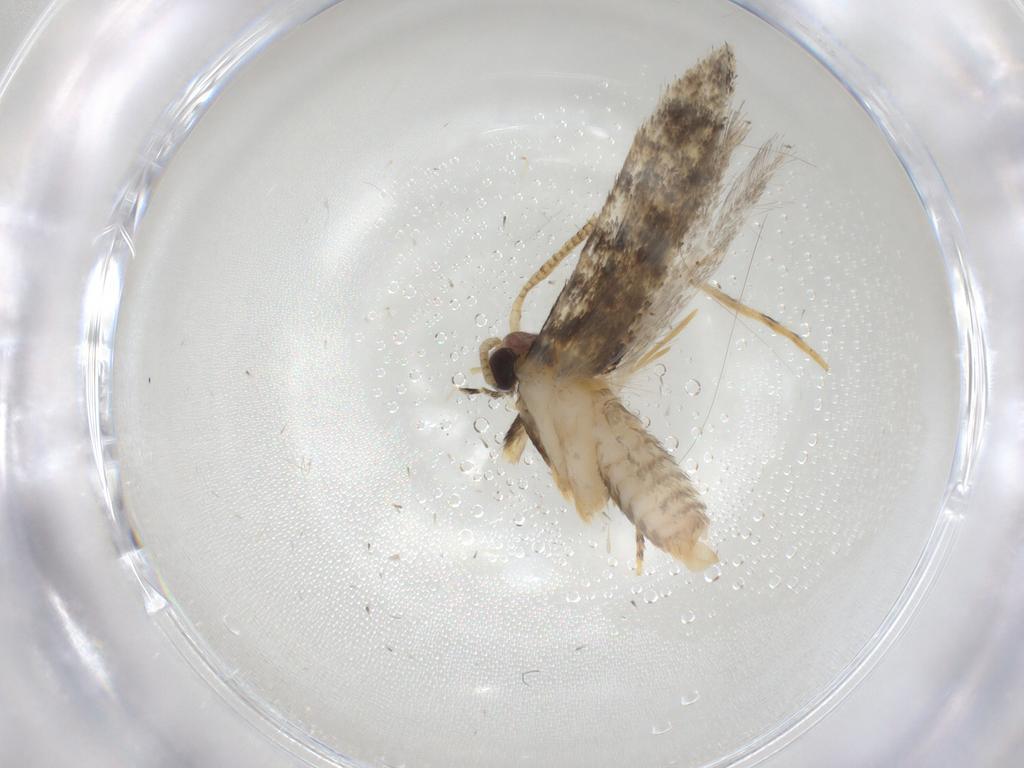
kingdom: Animalia
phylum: Arthropoda
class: Insecta
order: Lepidoptera
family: Tineidae
